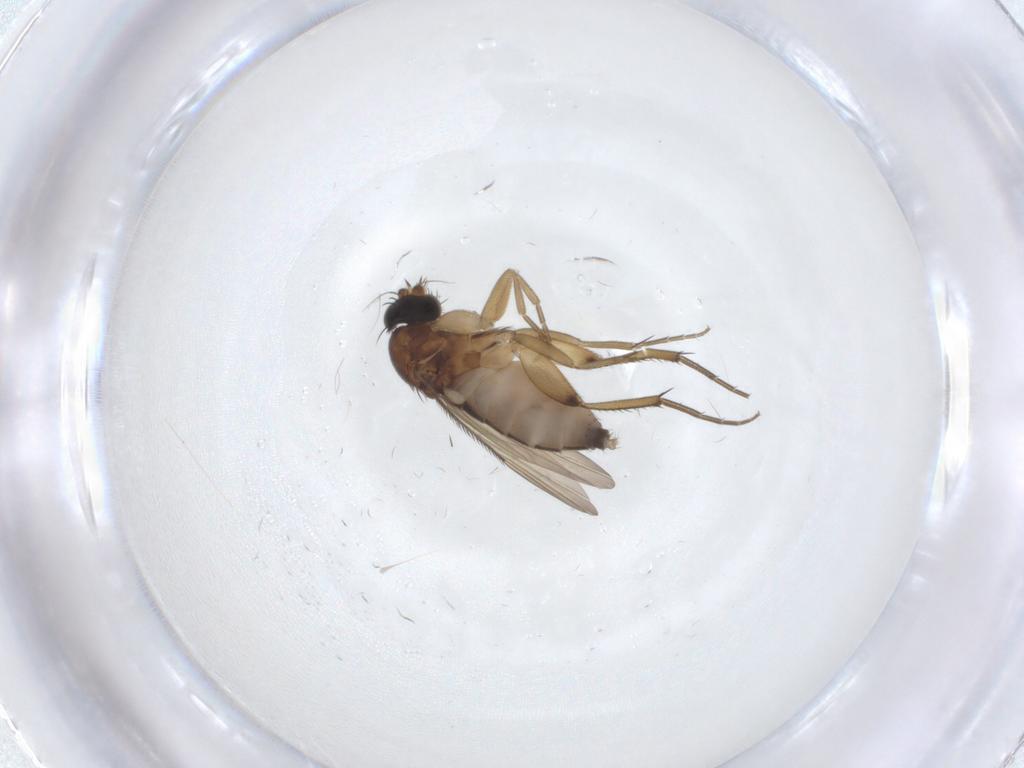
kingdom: Animalia
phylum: Arthropoda
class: Insecta
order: Diptera
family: Phoridae
